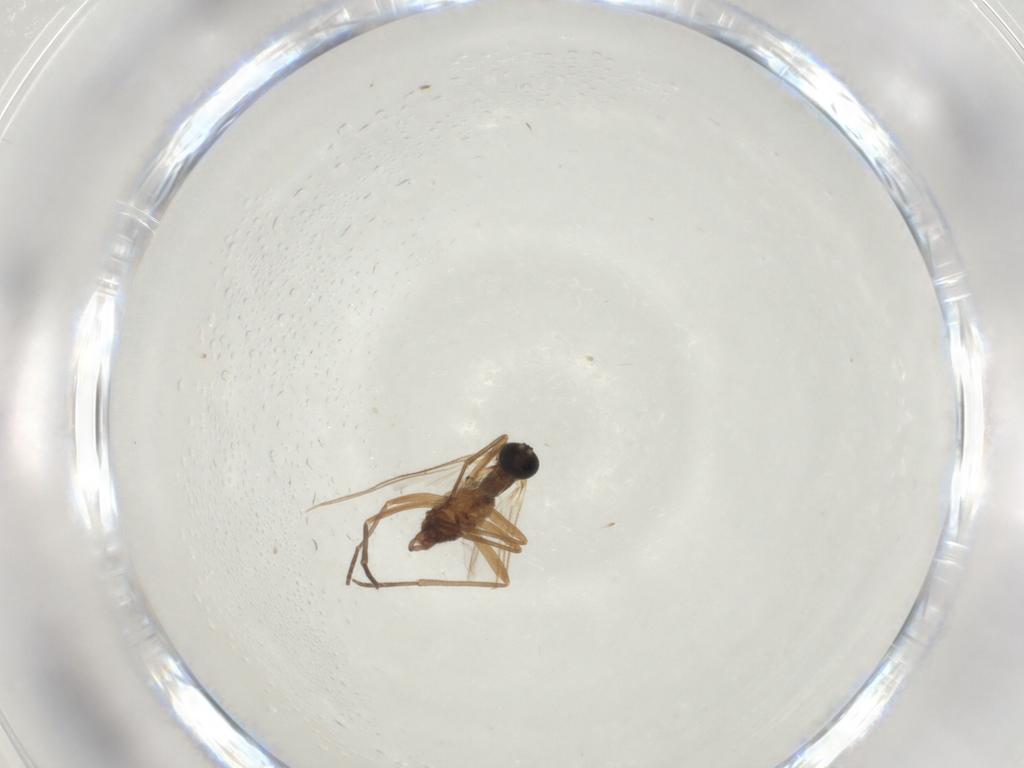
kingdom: Animalia
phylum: Arthropoda
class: Insecta
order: Diptera
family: Sciaridae
